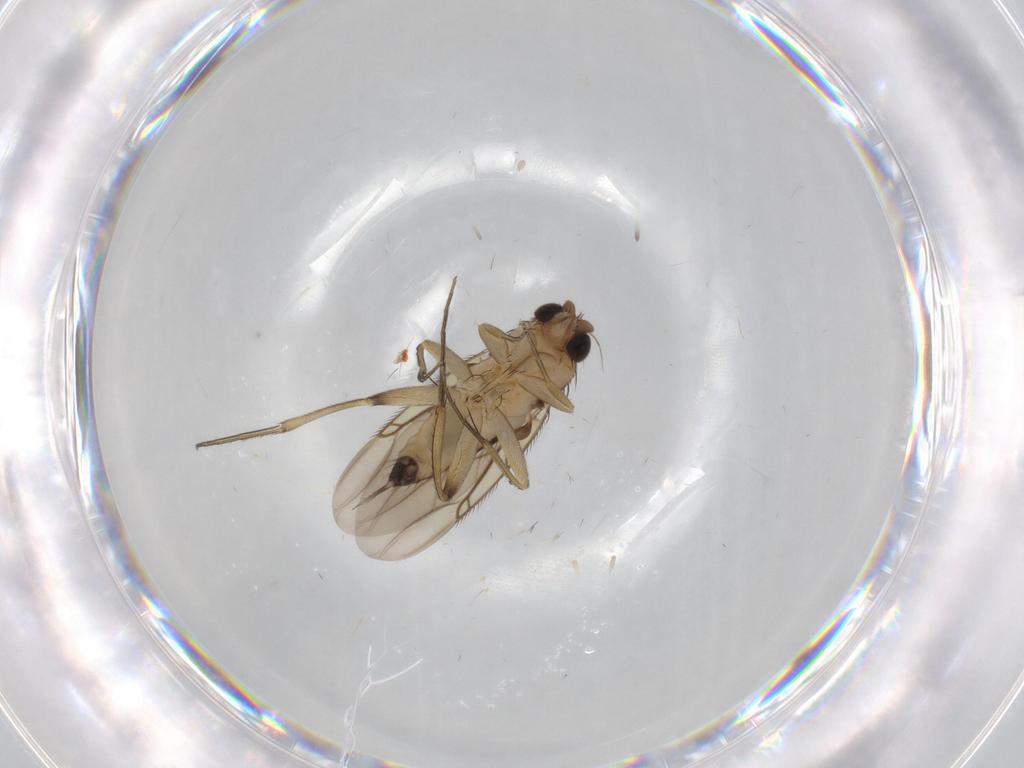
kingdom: Animalia
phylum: Arthropoda
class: Insecta
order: Diptera
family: Phoridae
